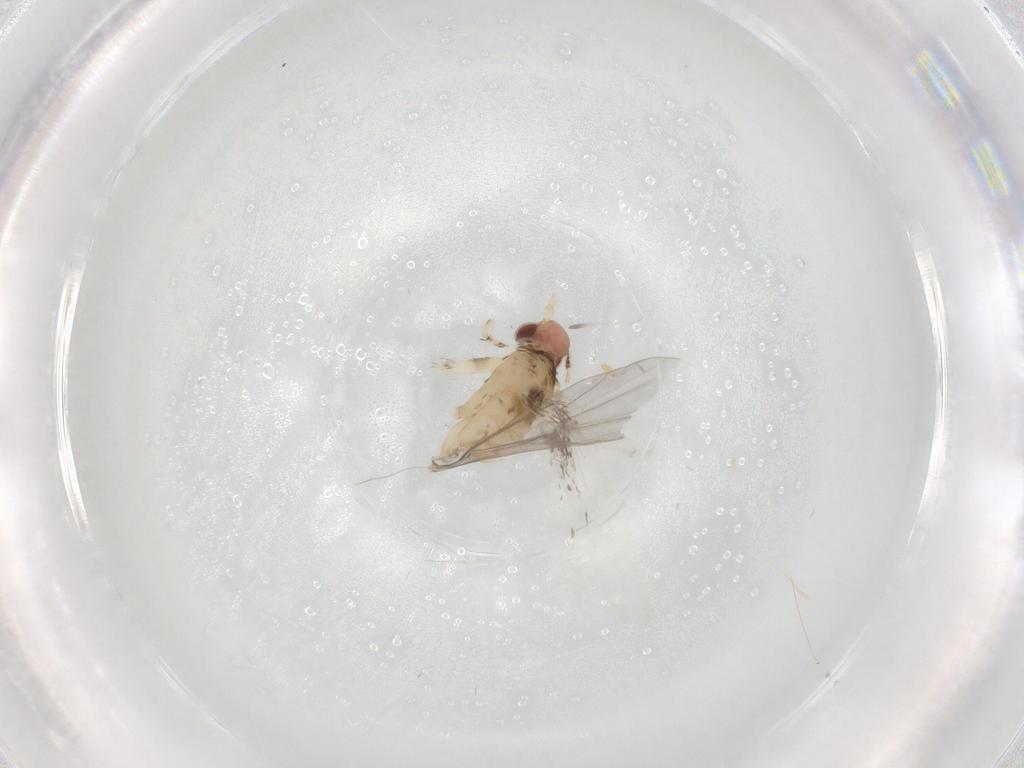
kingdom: Animalia
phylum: Arthropoda
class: Insecta
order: Lepidoptera
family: Gracillariidae
